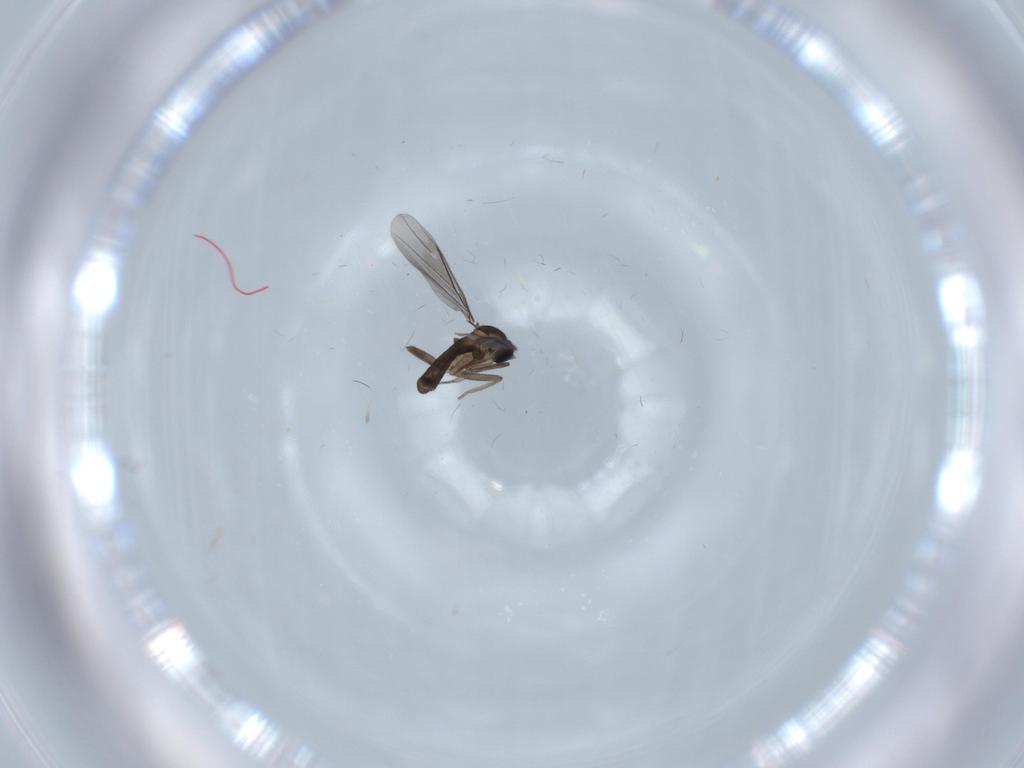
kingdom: Animalia
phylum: Arthropoda
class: Insecta
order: Diptera
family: Phoridae
